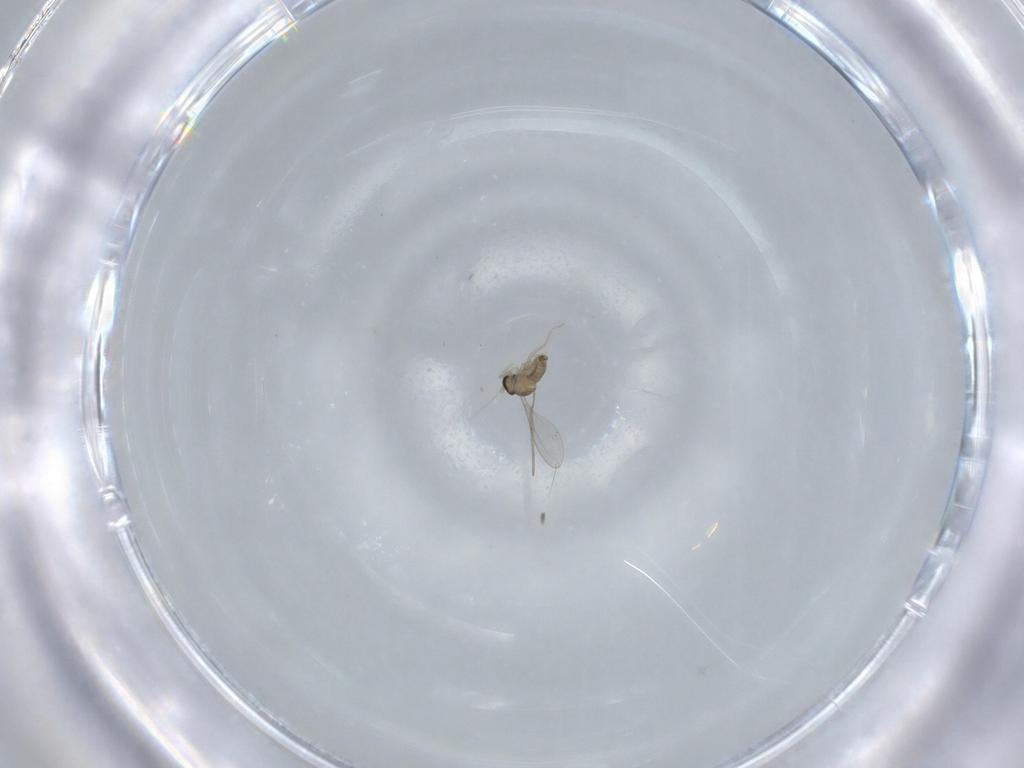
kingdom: Animalia
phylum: Arthropoda
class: Insecta
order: Diptera
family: Cecidomyiidae
